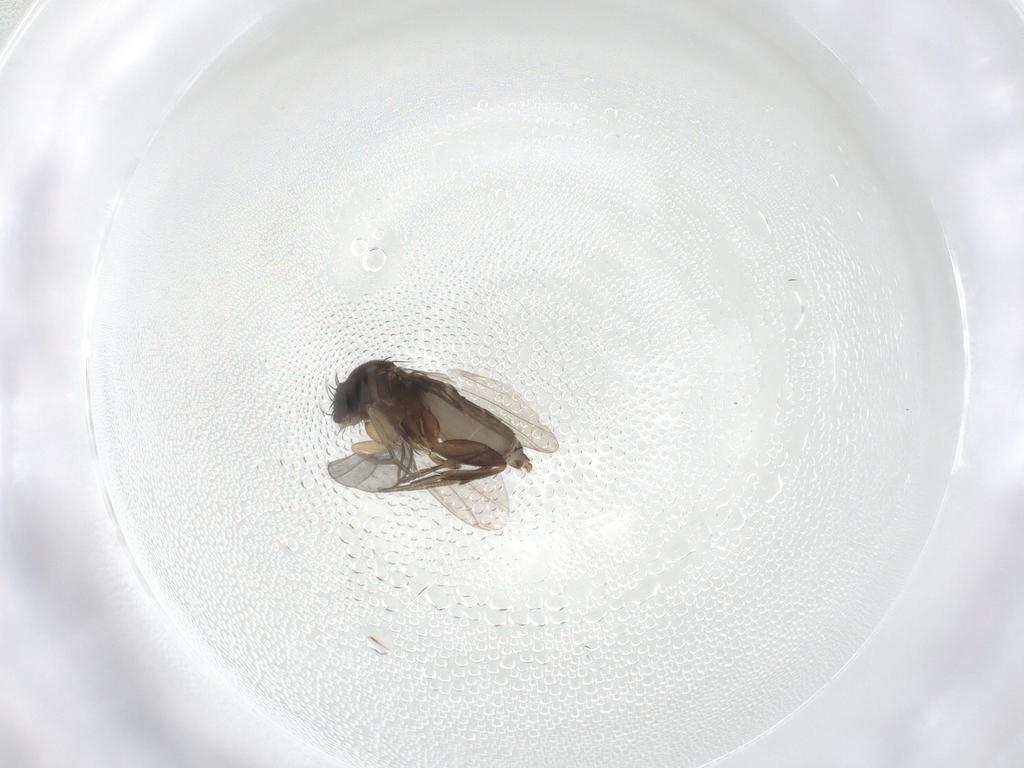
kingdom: Animalia
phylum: Arthropoda
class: Insecta
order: Diptera
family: Phoridae
